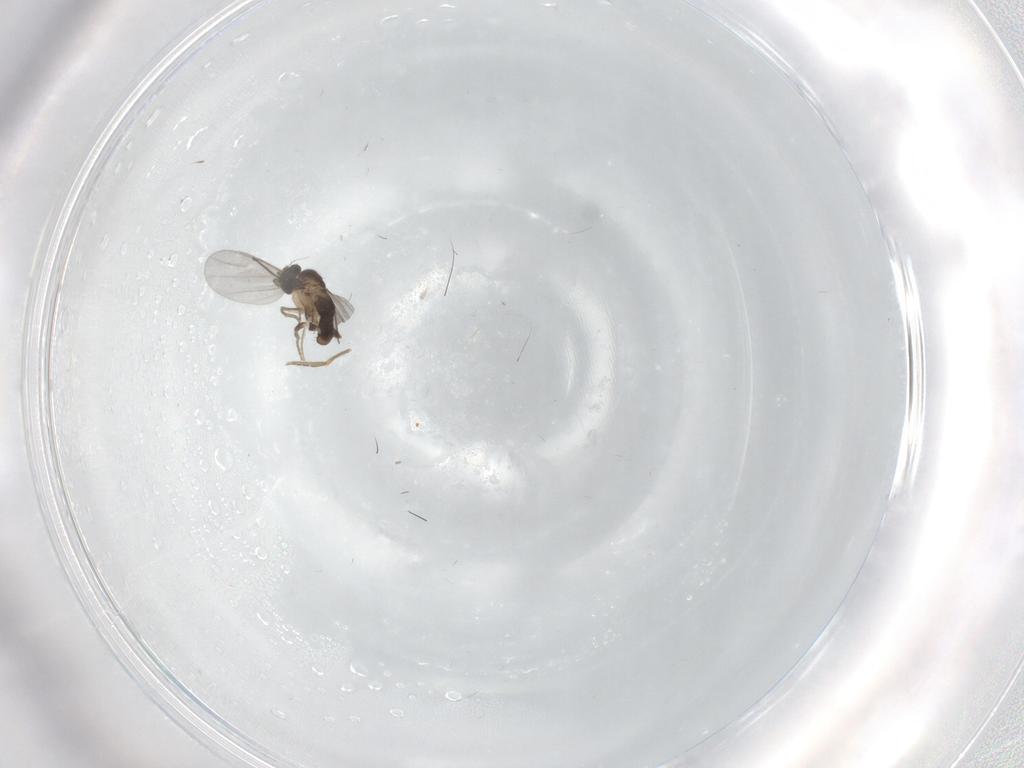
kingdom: Animalia
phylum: Arthropoda
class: Insecta
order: Diptera
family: Cecidomyiidae
